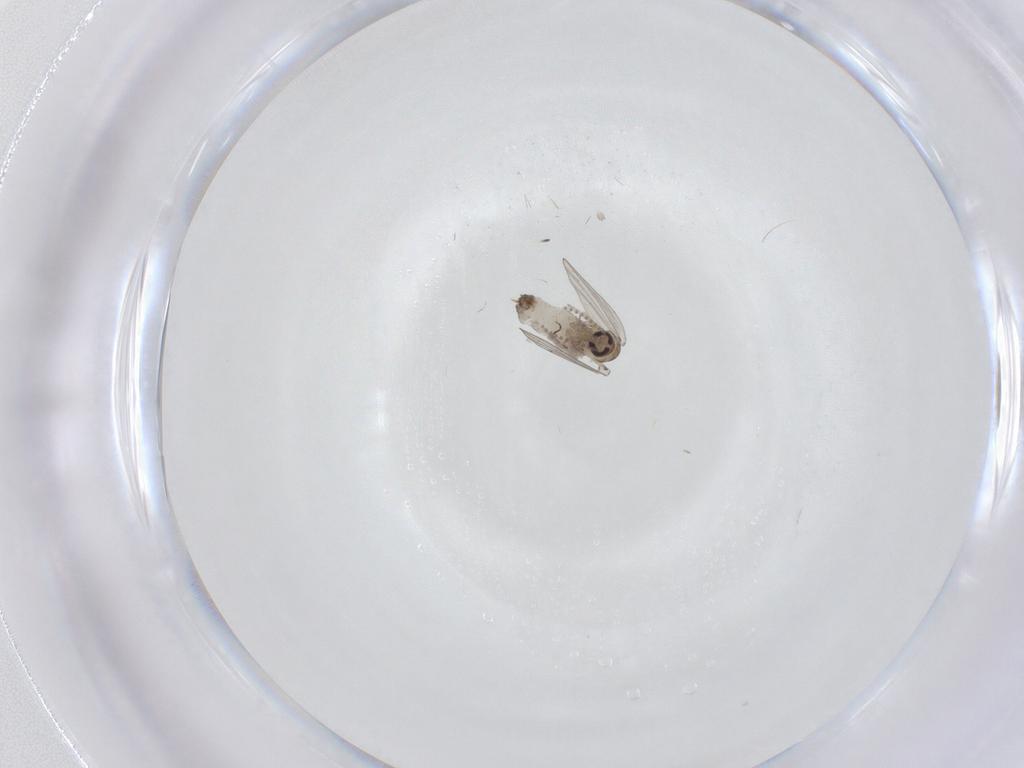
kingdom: Animalia
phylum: Arthropoda
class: Insecta
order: Diptera
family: Psychodidae
